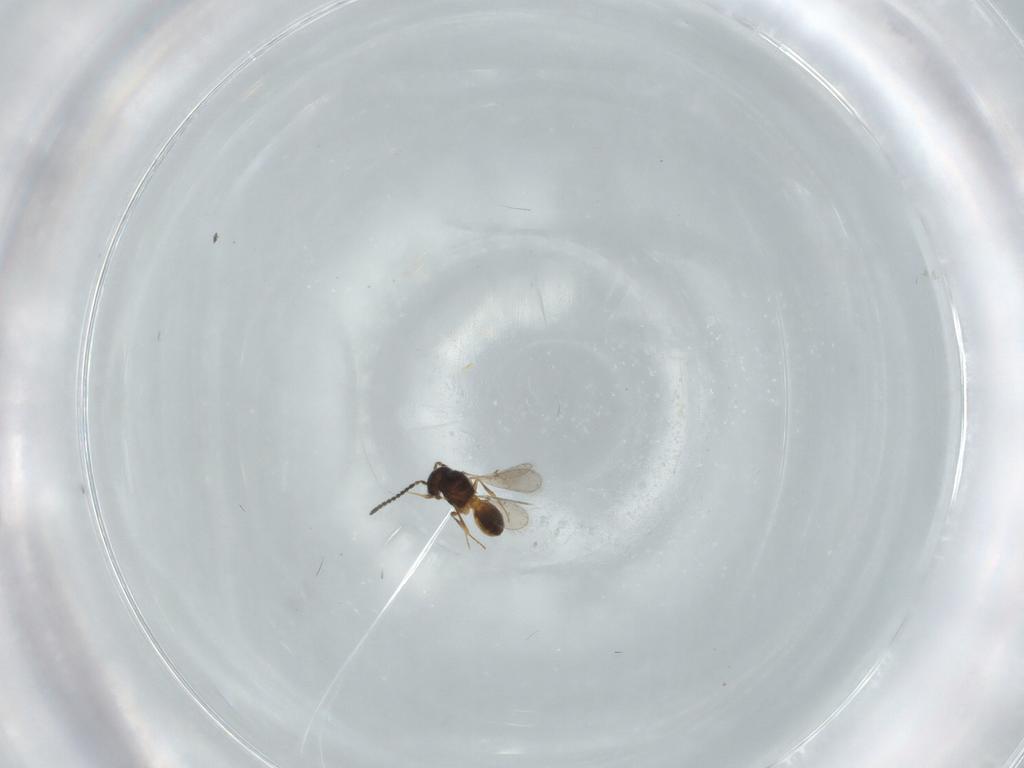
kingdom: Animalia
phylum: Arthropoda
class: Insecta
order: Hymenoptera
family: Scelionidae
